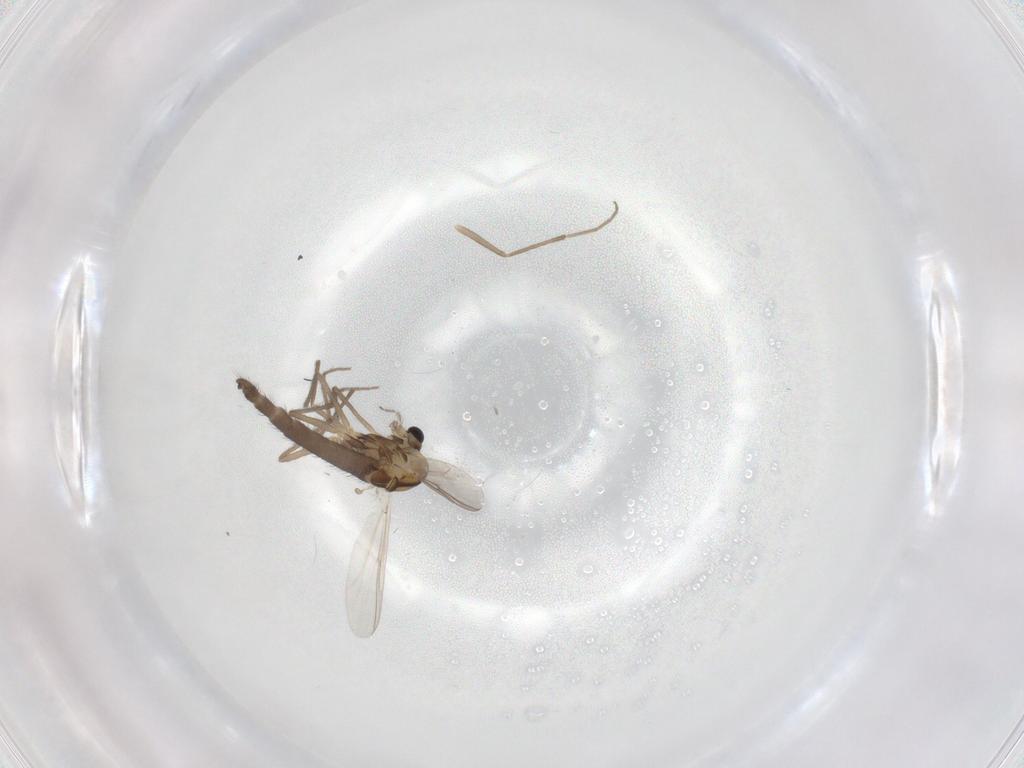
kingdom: Animalia
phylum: Arthropoda
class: Insecta
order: Diptera
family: Chironomidae
